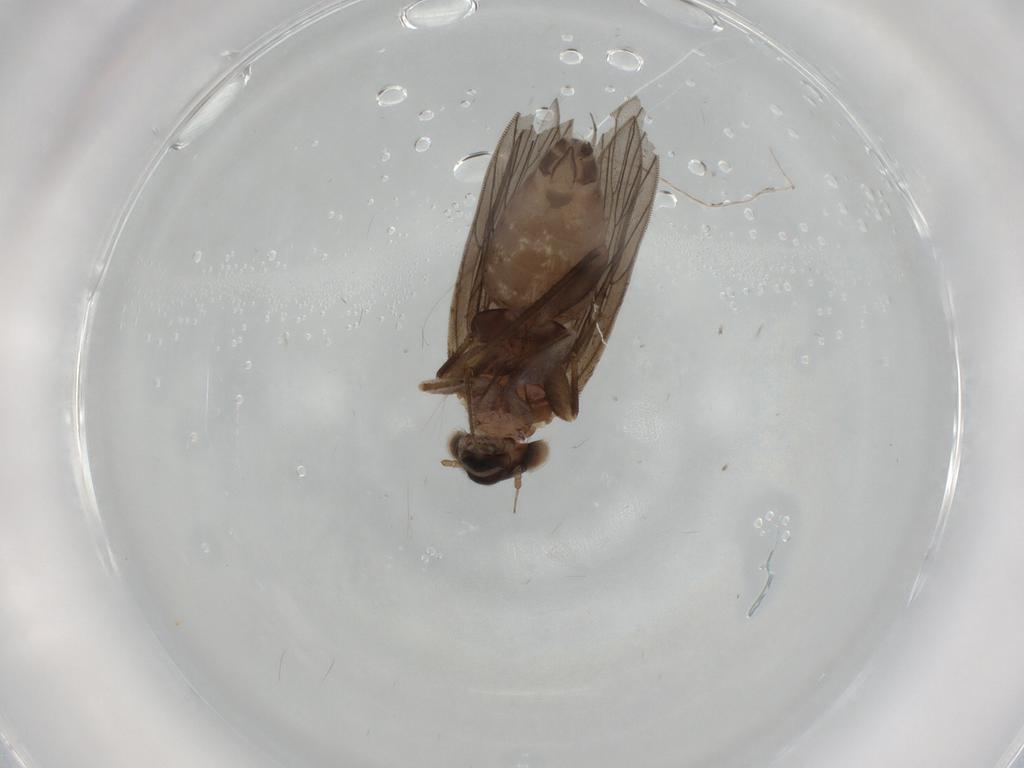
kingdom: Animalia
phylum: Arthropoda
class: Insecta
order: Psocodea
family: Lepidopsocidae
